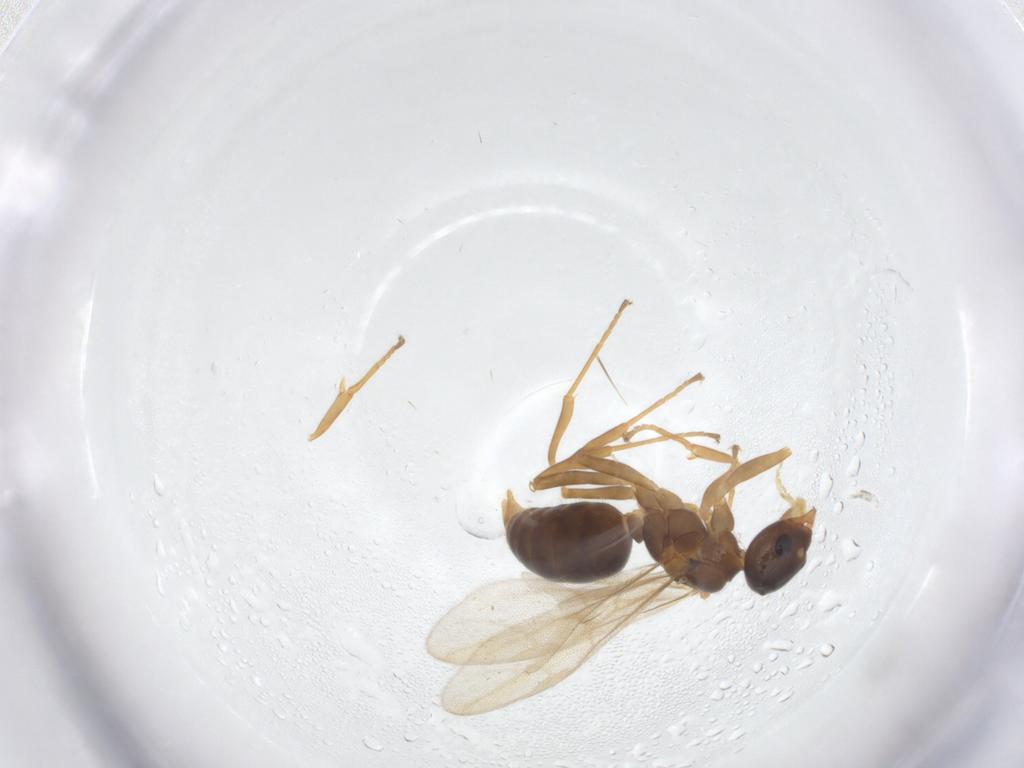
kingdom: Animalia
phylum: Arthropoda
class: Insecta
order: Hymenoptera
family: Formicidae
